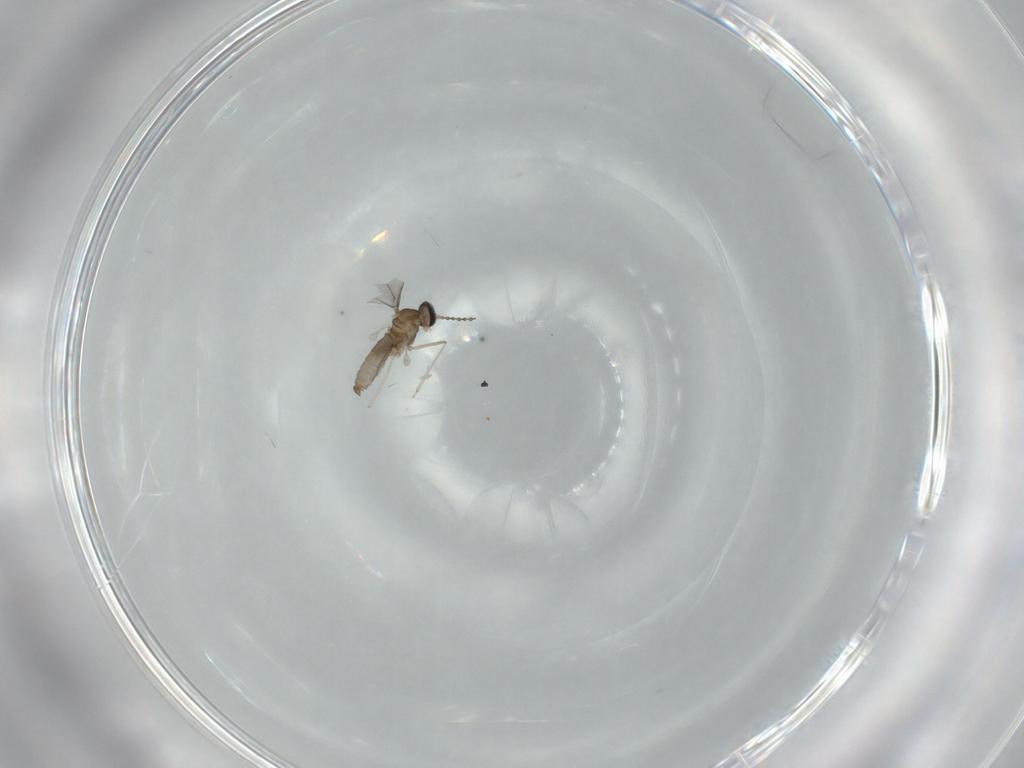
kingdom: Animalia
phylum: Arthropoda
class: Insecta
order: Diptera
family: Cecidomyiidae
